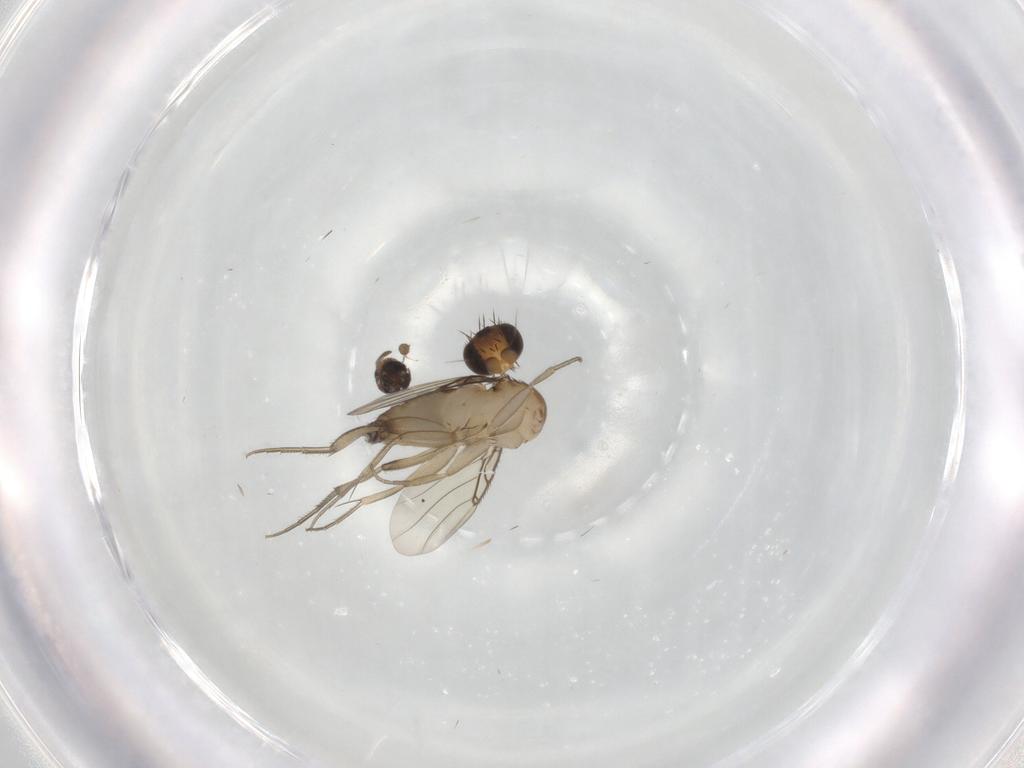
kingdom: Animalia
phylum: Arthropoda
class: Insecta
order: Diptera
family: Phoridae
